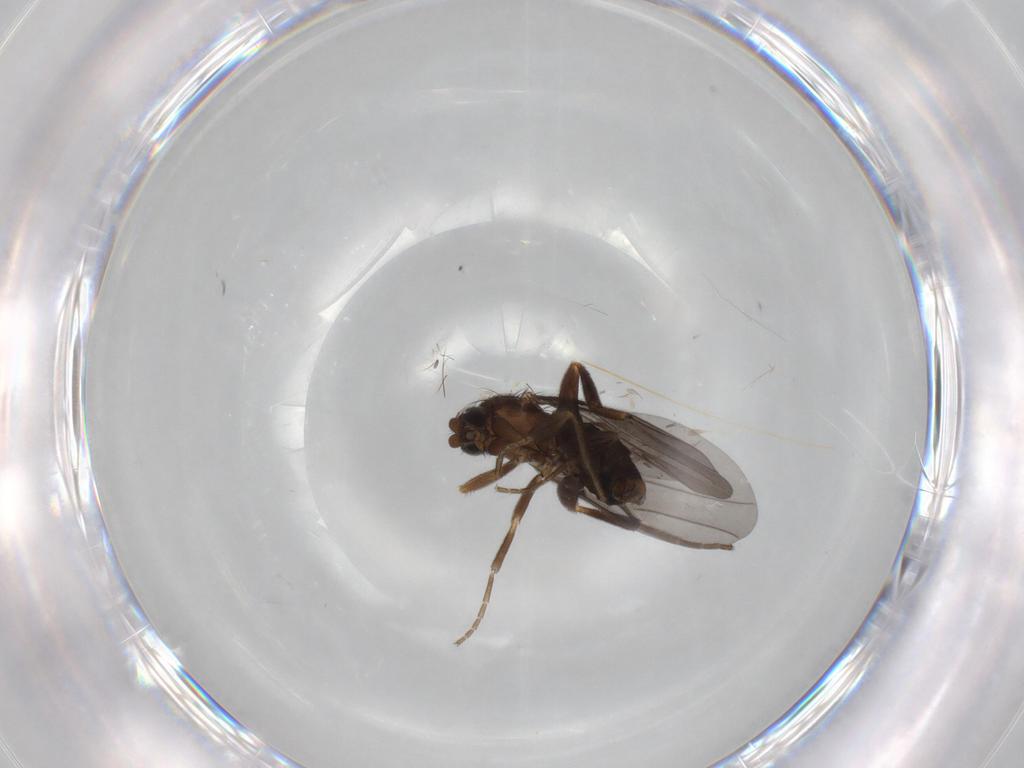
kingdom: Animalia
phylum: Arthropoda
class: Insecta
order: Diptera
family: Phoridae
